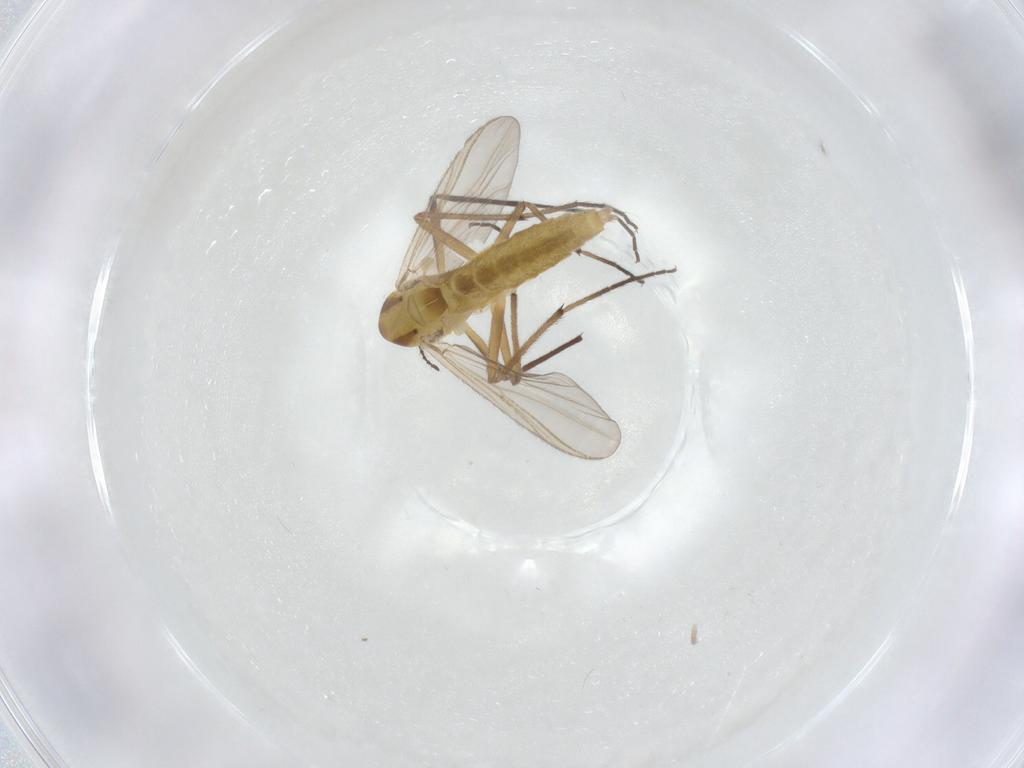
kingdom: Animalia
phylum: Arthropoda
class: Insecta
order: Diptera
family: Chironomidae
